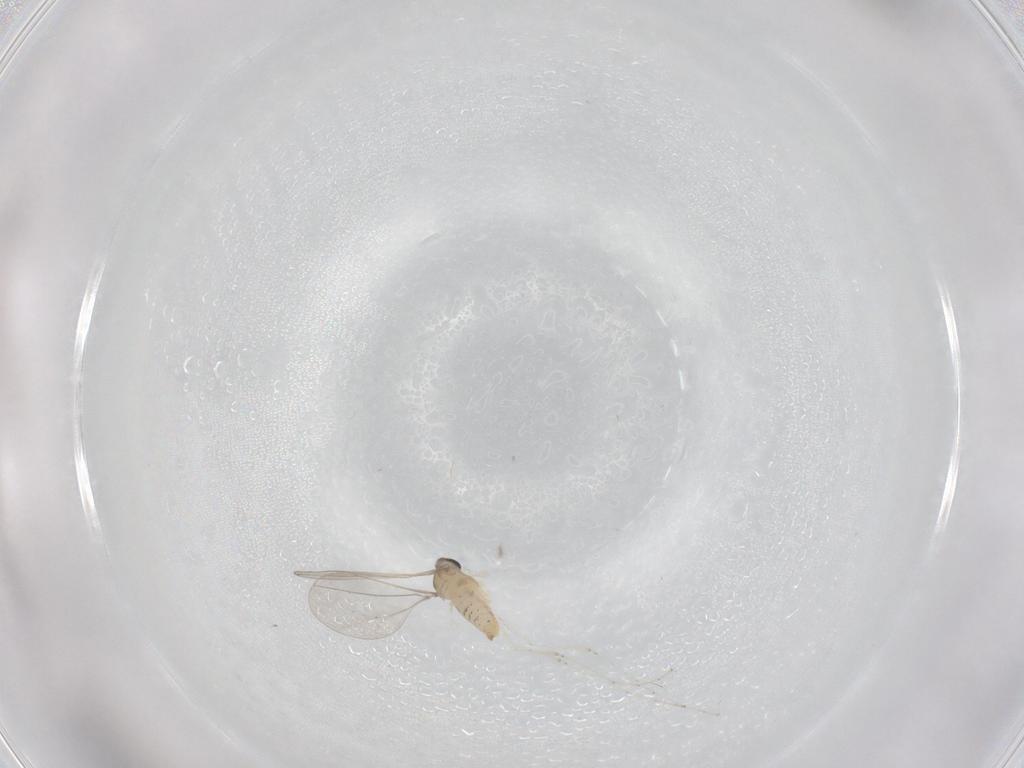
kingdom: Animalia
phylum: Arthropoda
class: Insecta
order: Diptera
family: Cecidomyiidae
